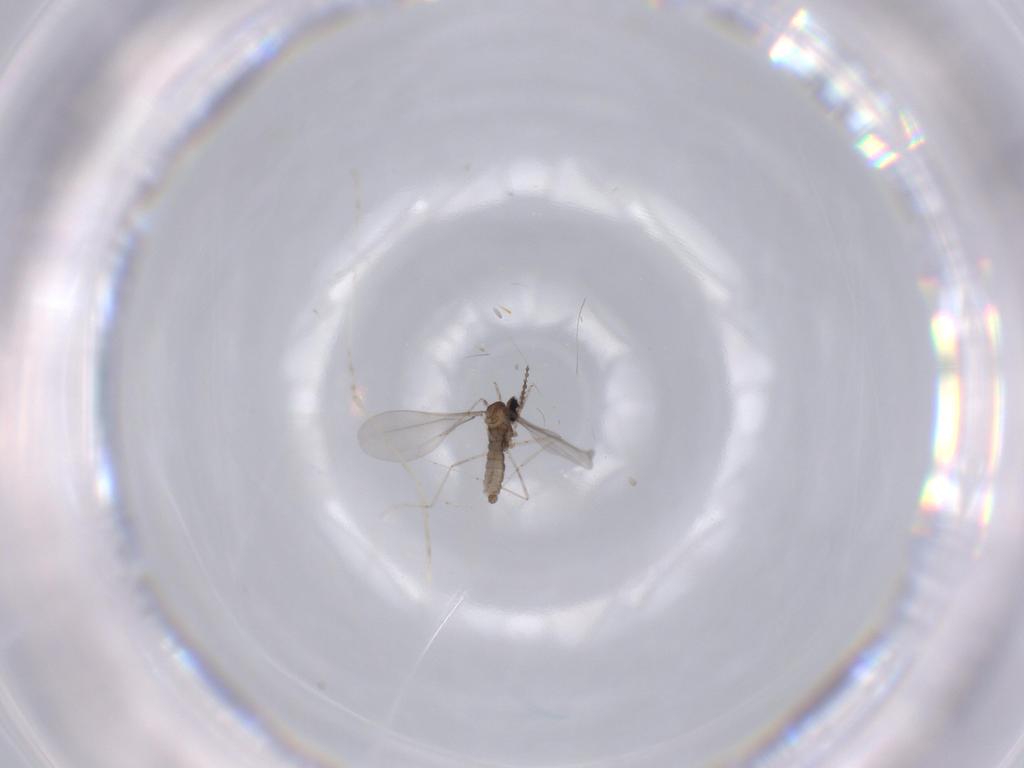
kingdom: Animalia
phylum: Arthropoda
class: Insecta
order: Diptera
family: Cecidomyiidae
